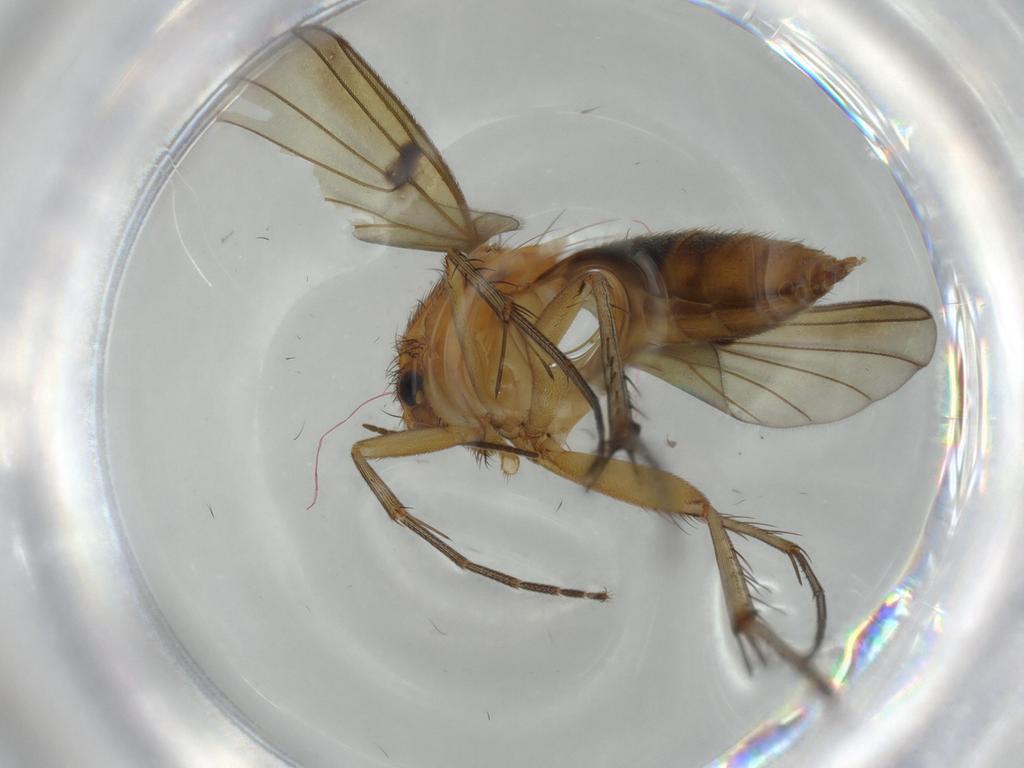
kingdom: Animalia
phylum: Arthropoda
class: Insecta
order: Diptera
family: Mycetophilidae
